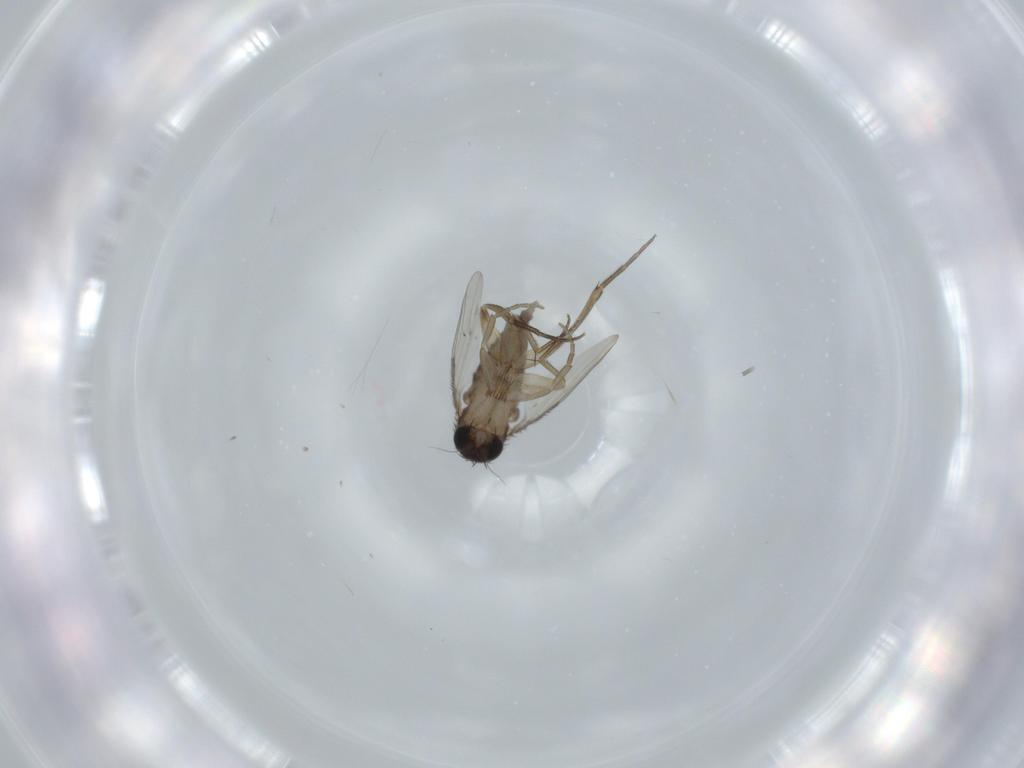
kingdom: Animalia
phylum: Arthropoda
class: Insecta
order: Diptera
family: Phoridae
